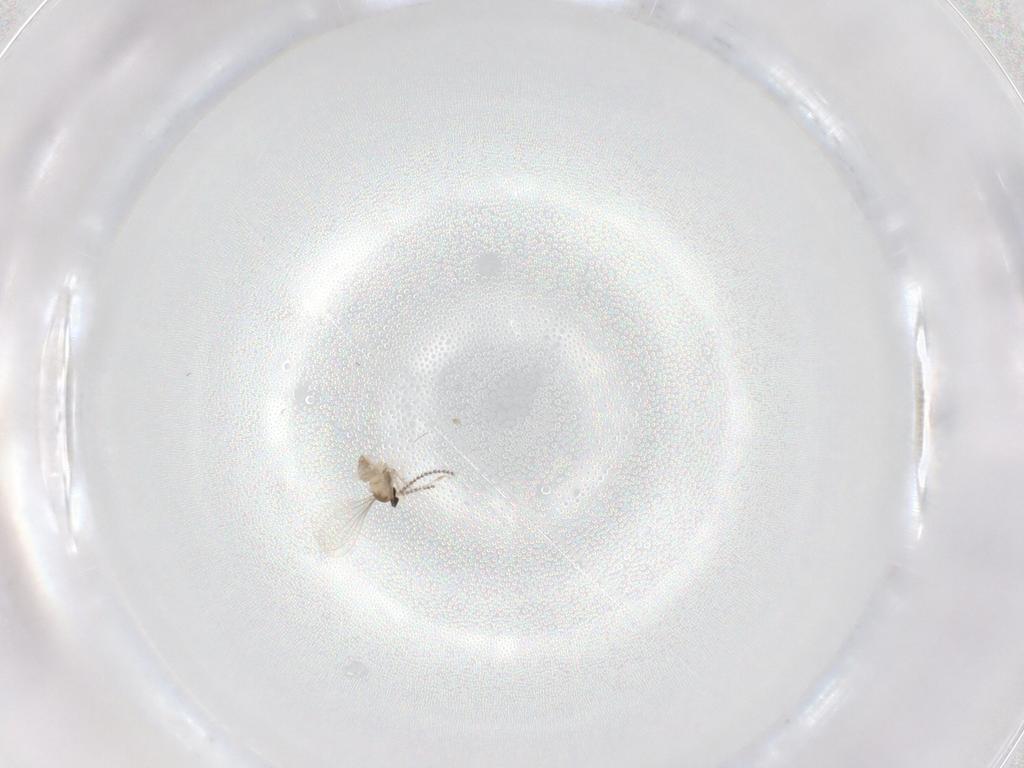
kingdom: Animalia
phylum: Arthropoda
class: Insecta
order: Diptera
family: Cecidomyiidae
